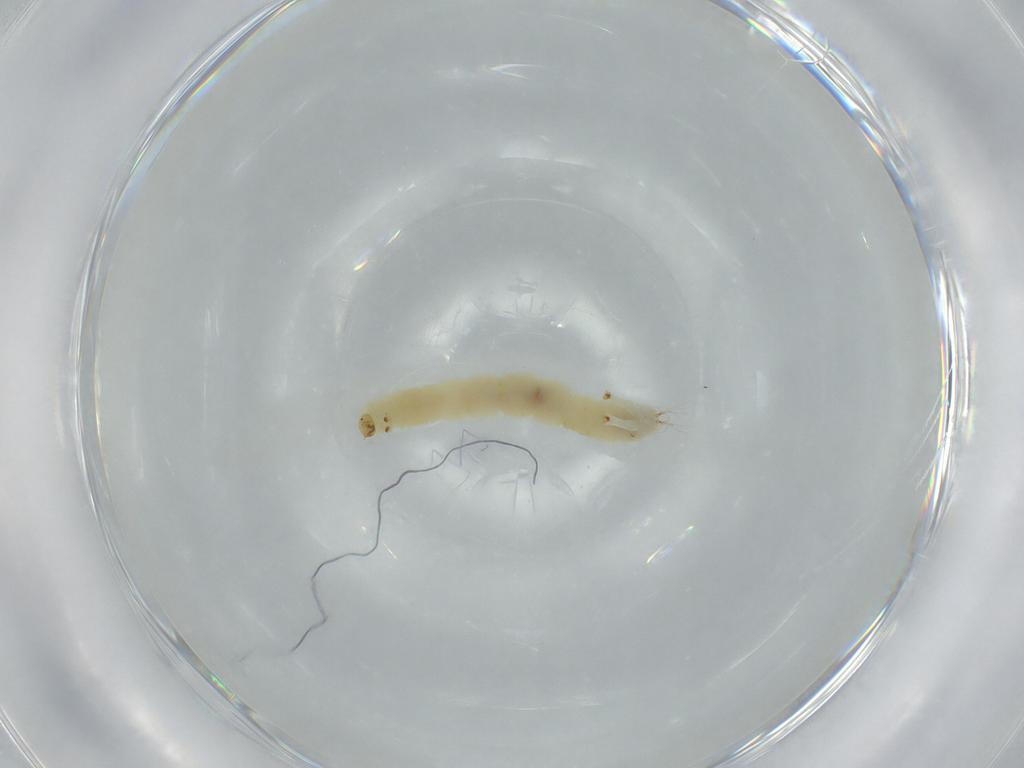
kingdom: Animalia
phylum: Arthropoda
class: Insecta
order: Diptera
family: Chironomidae
